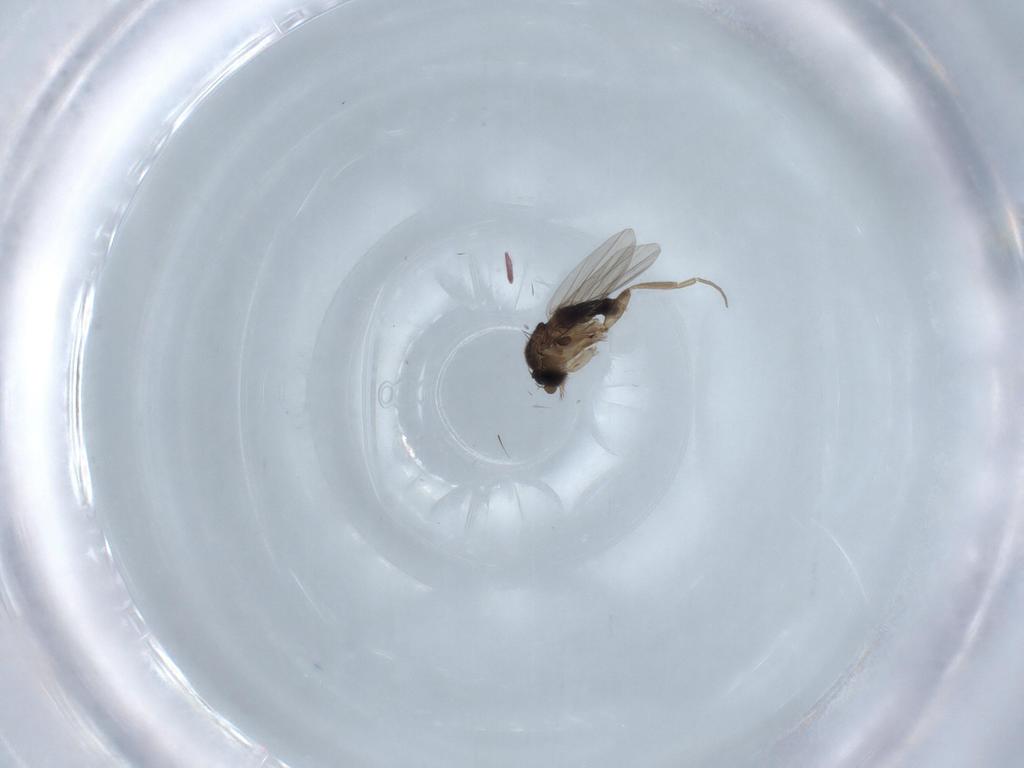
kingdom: Animalia
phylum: Arthropoda
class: Insecta
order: Diptera
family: Phoridae
